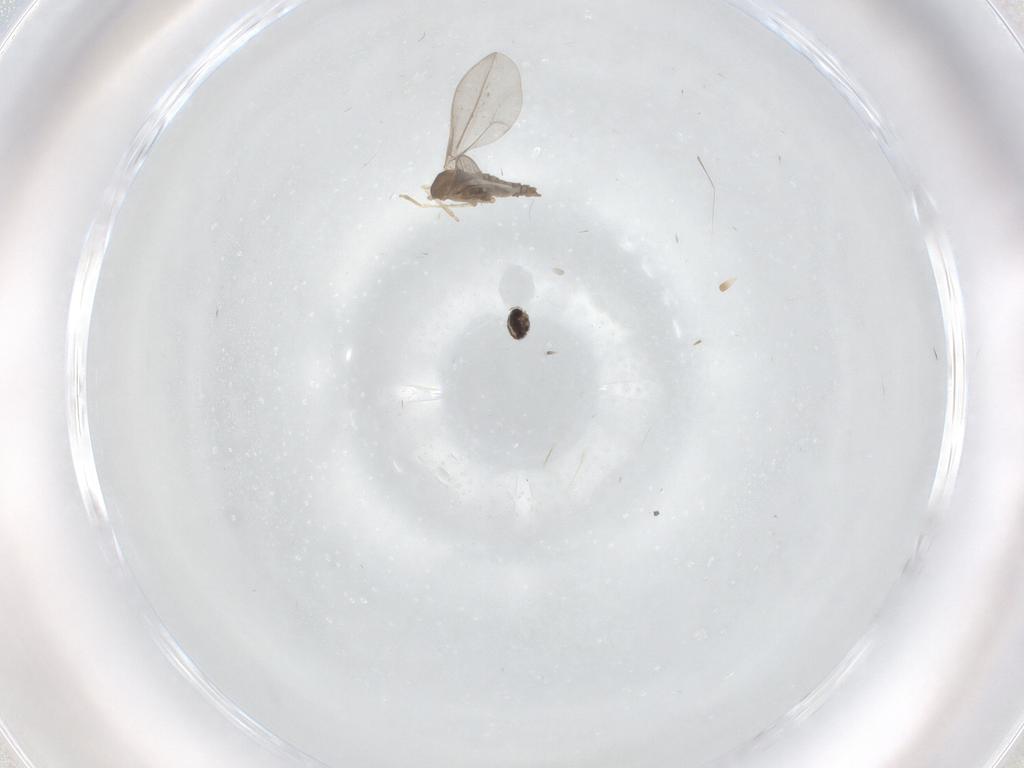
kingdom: Animalia
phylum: Arthropoda
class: Insecta
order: Diptera
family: Cecidomyiidae
